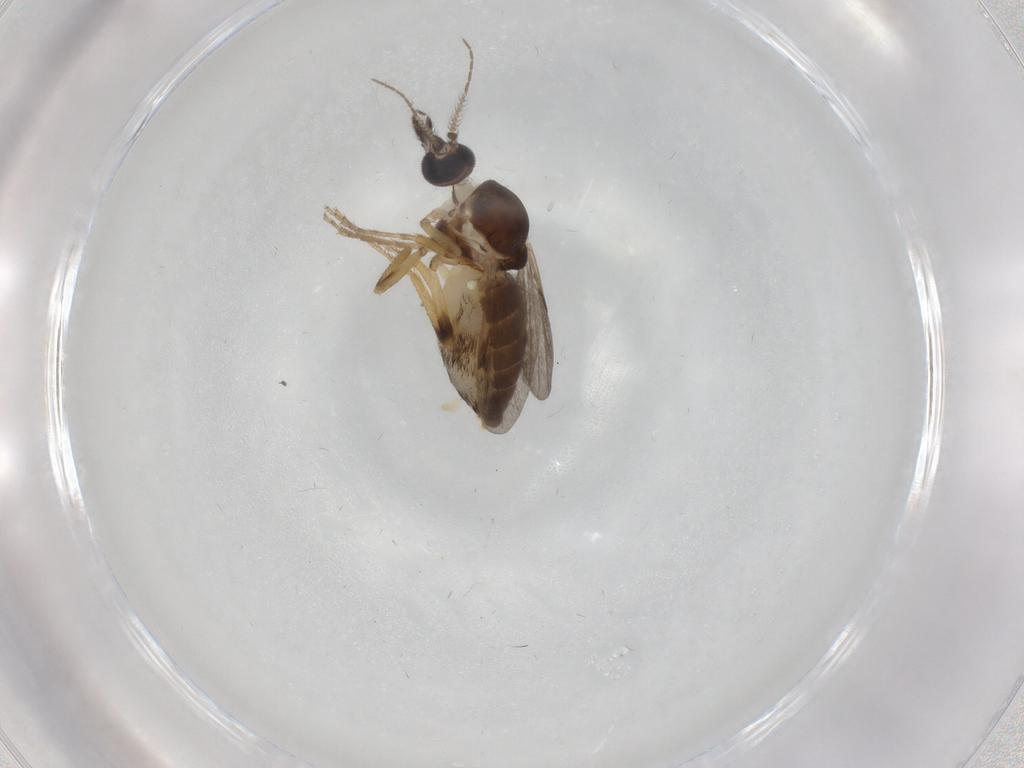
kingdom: Animalia
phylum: Arthropoda
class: Insecta
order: Diptera
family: Ceratopogonidae
